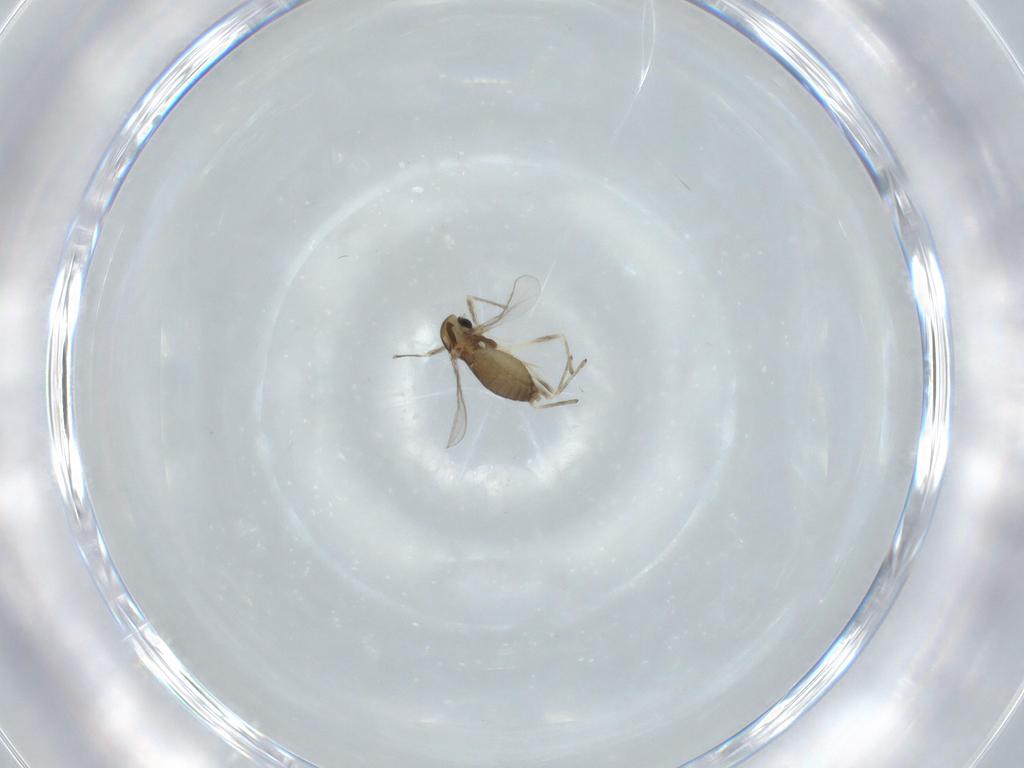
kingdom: Animalia
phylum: Arthropoda
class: Insecta
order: Diptera
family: Chironomidae
